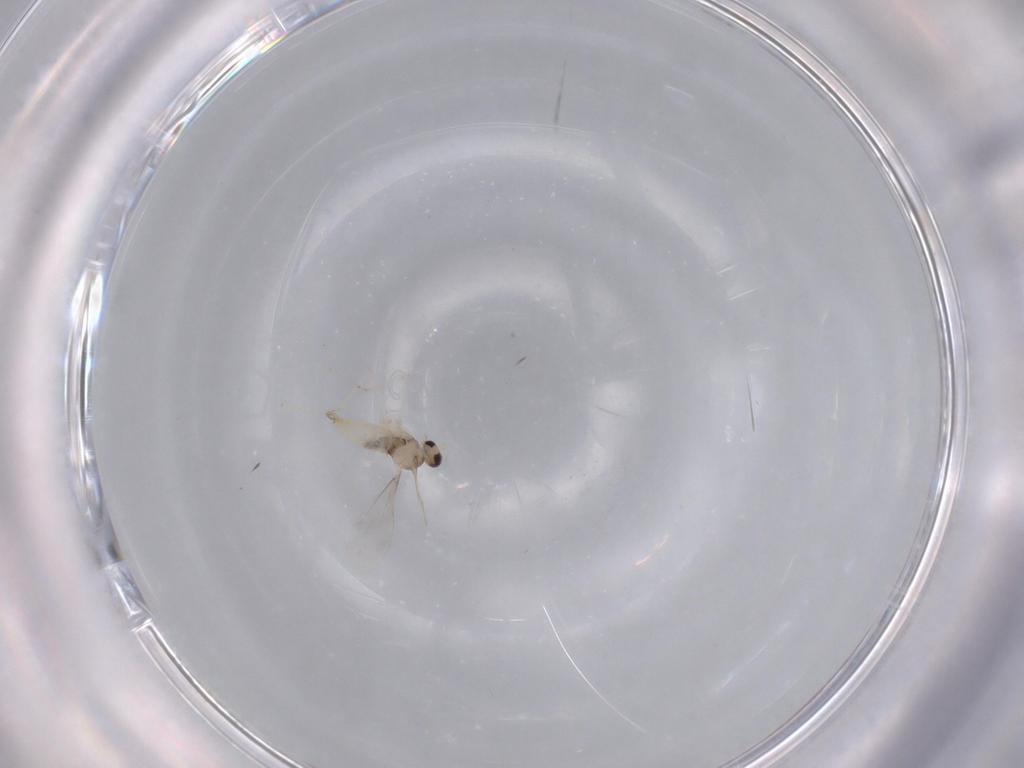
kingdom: Animalia
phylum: Arthropoda
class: Insecta
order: Diptera
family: Cecidomyiidae
